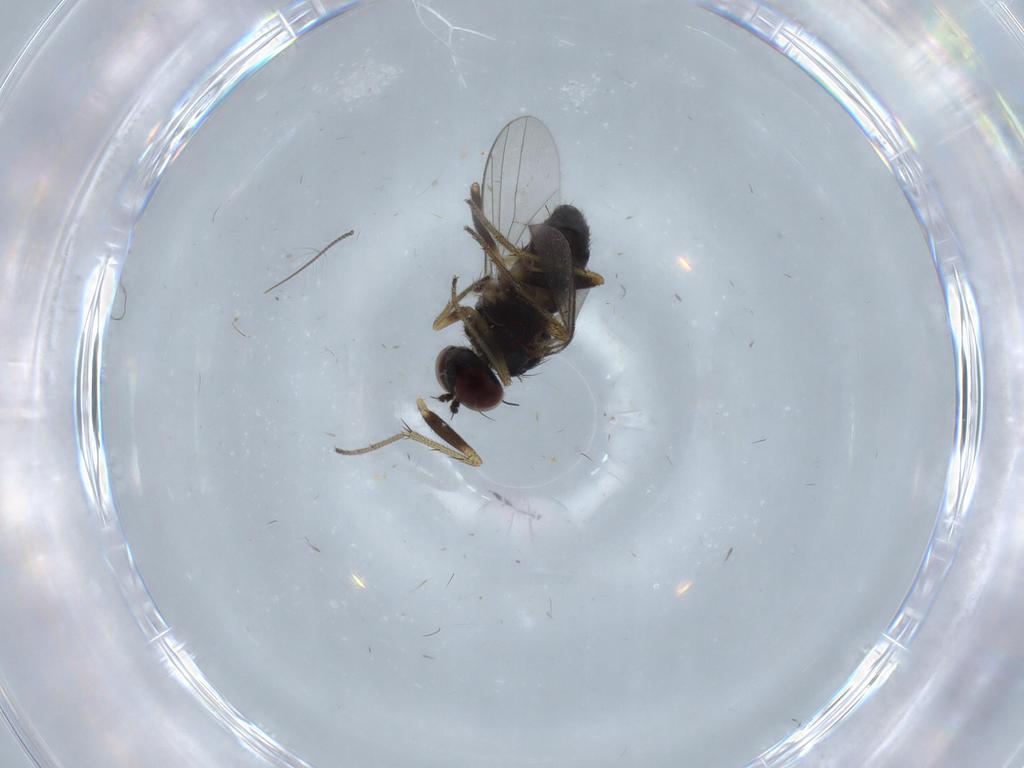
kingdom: Animalia
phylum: Arthropoda
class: Insecta
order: Diptera
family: Dolichopodidae
